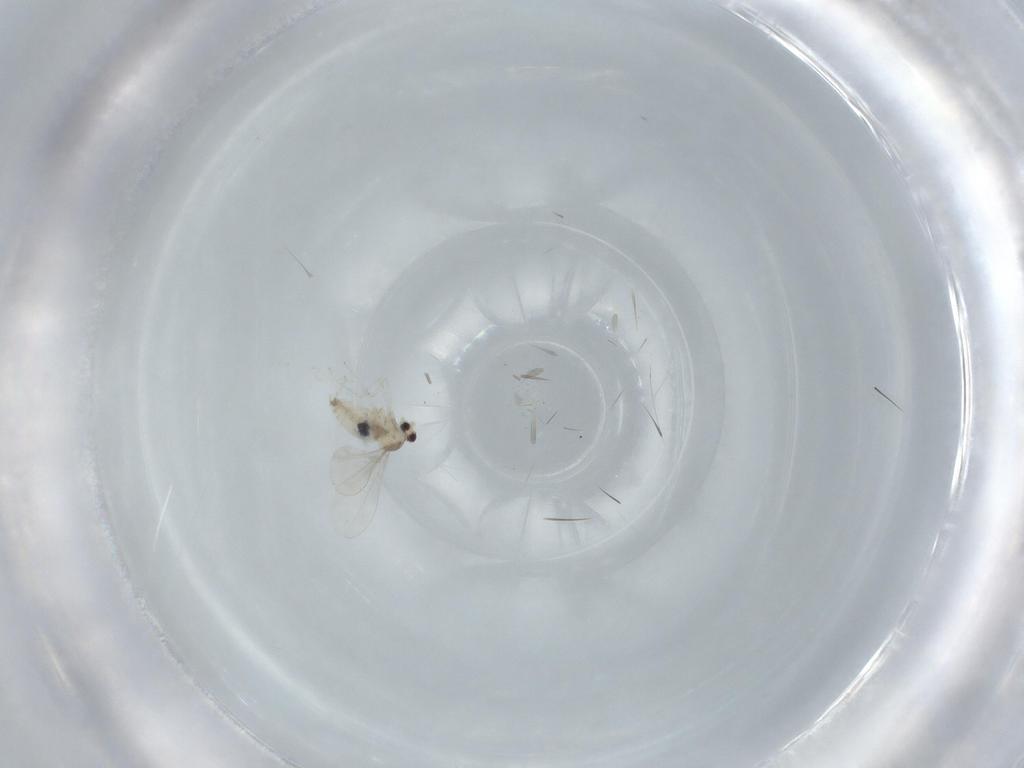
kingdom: Animalia
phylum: Arthropoda
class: Insecta
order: Diptera
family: Cecidomyiidae
